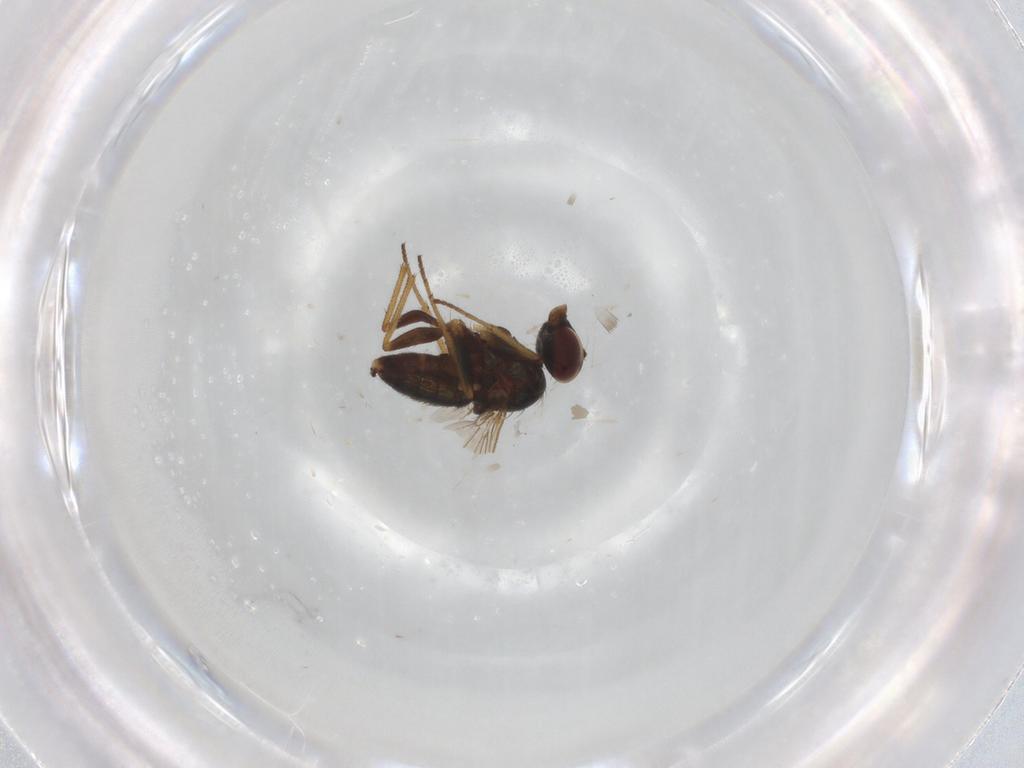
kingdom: Animalia
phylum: Arthropoda
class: Insecta
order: Diptera
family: Dolichopodidae
